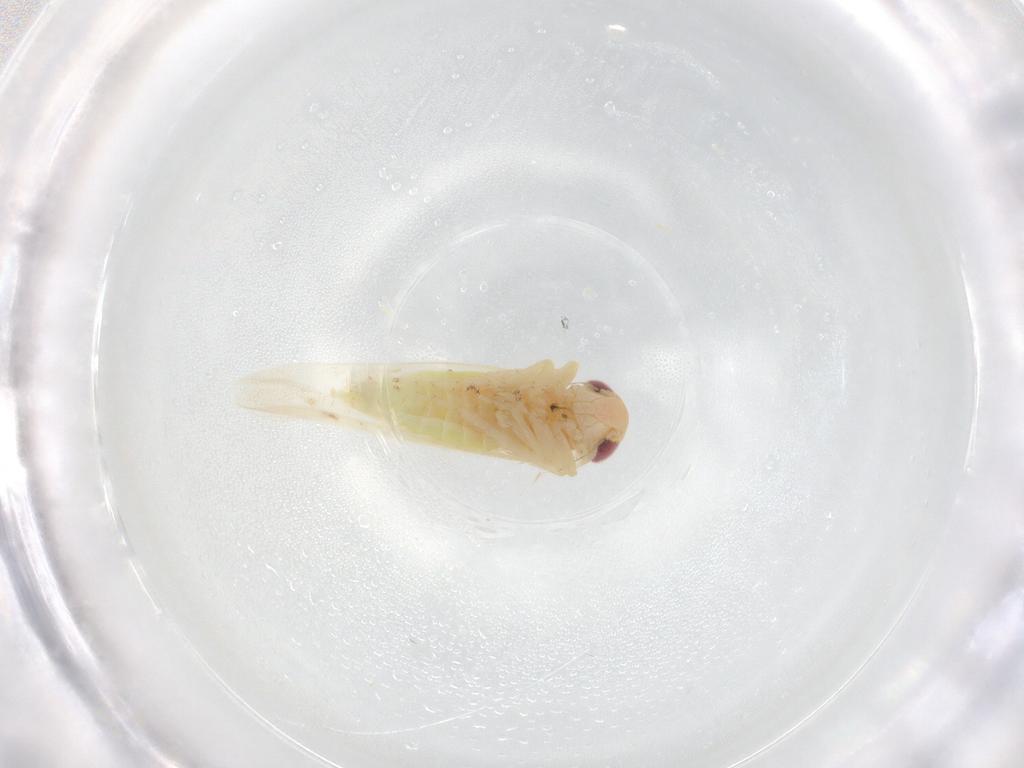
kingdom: Animalia
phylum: Arthropoda
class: Insecta
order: Hemiptera
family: Cicadellidae
